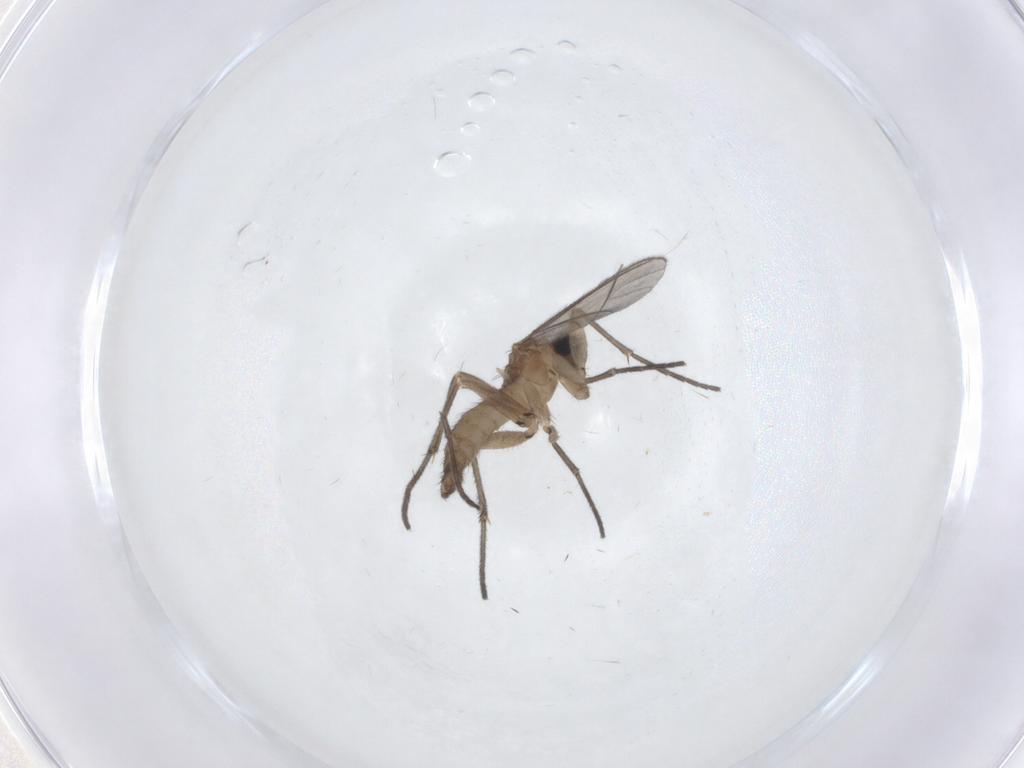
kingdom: Animalia
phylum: Arthropoda
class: Insecta
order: Diptera
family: Sciaridae
